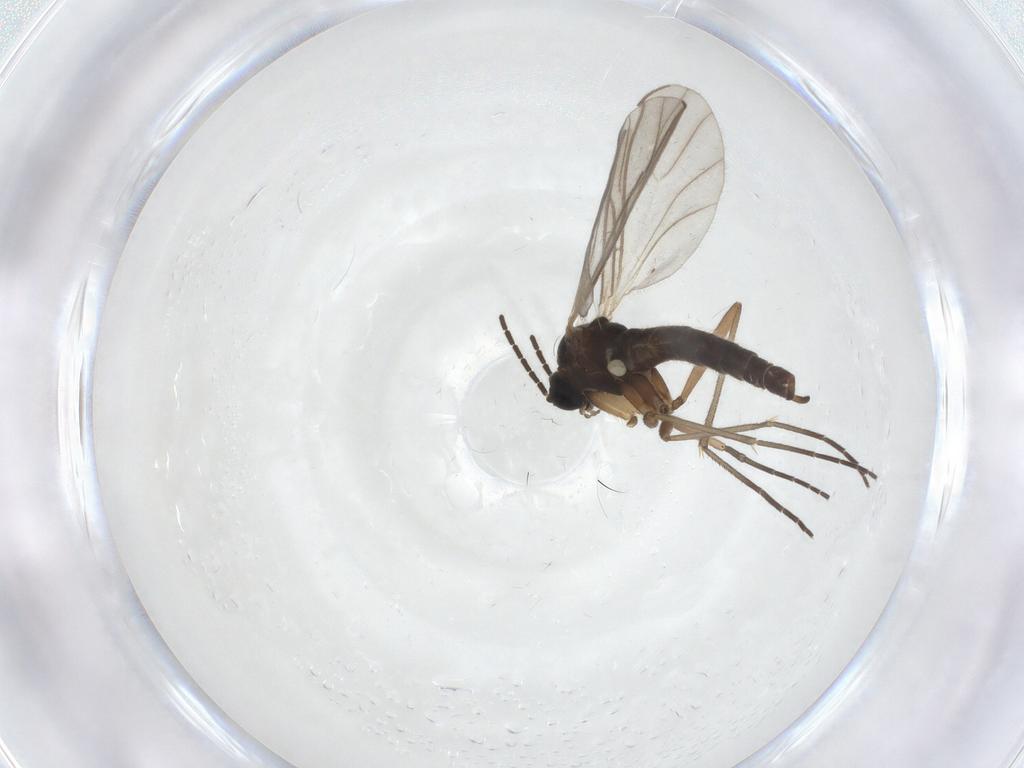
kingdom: Animalia
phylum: Arthropoda
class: Insecta
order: Diptera
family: Sciaridae
